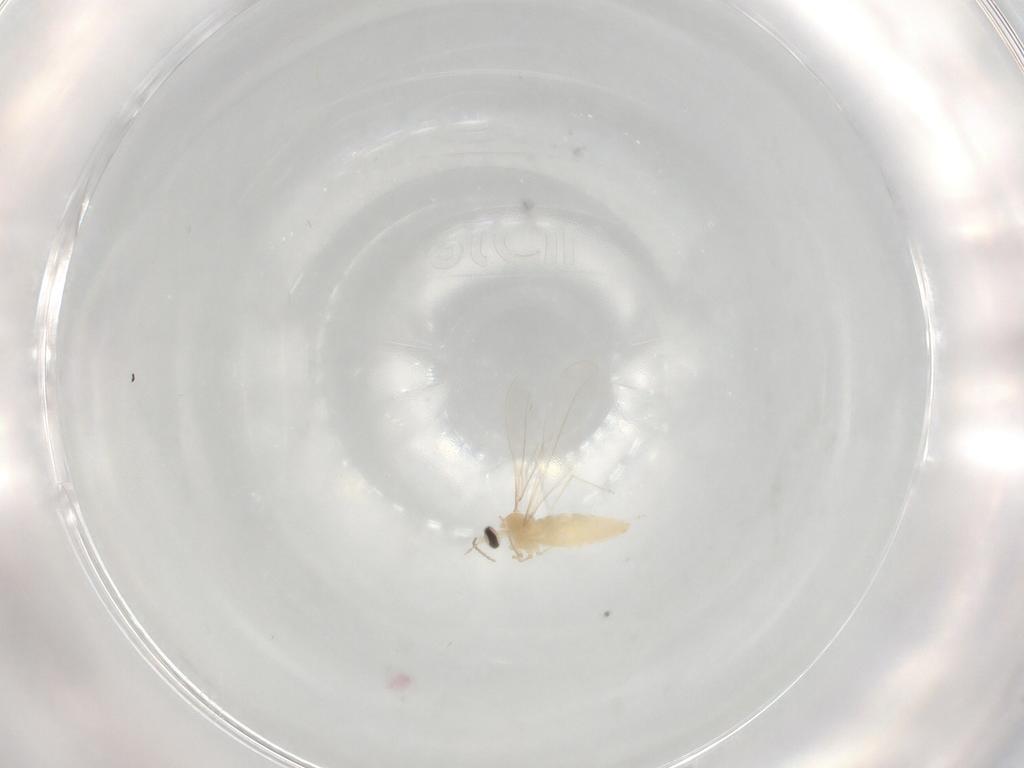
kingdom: Animalia
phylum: Arthropoda
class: Insecta
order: Diptera
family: Cecidomyiidae
